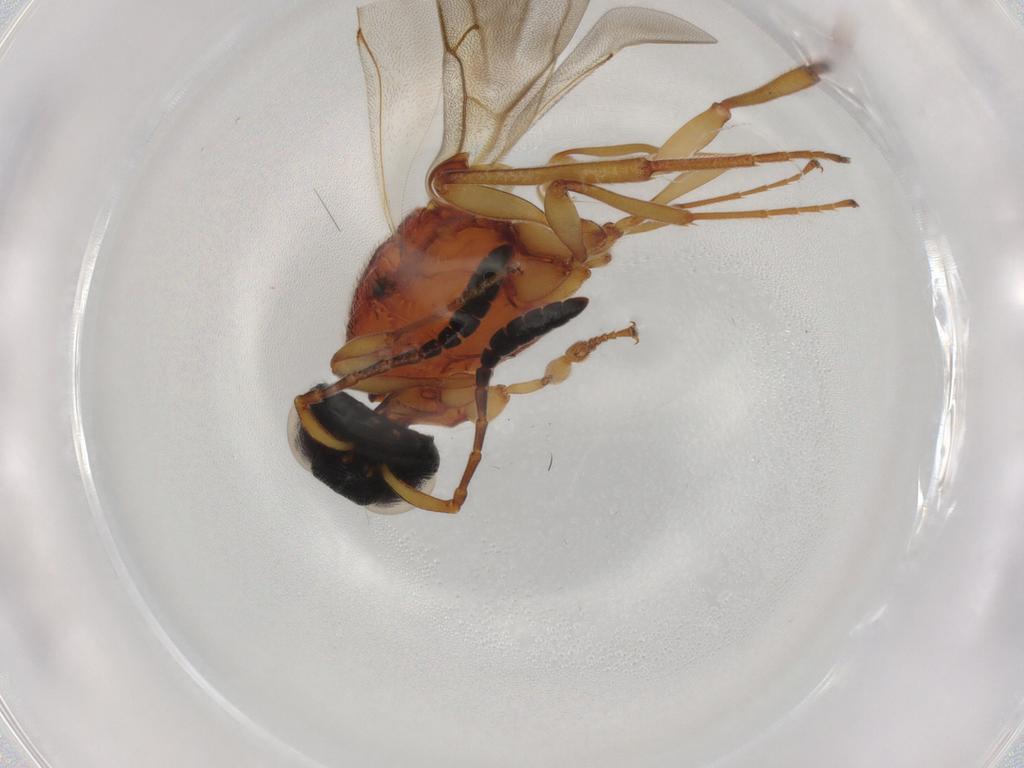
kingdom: Animalia
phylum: Arthropoda
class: Insecta
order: Hymenoptera
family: Scelionidae
